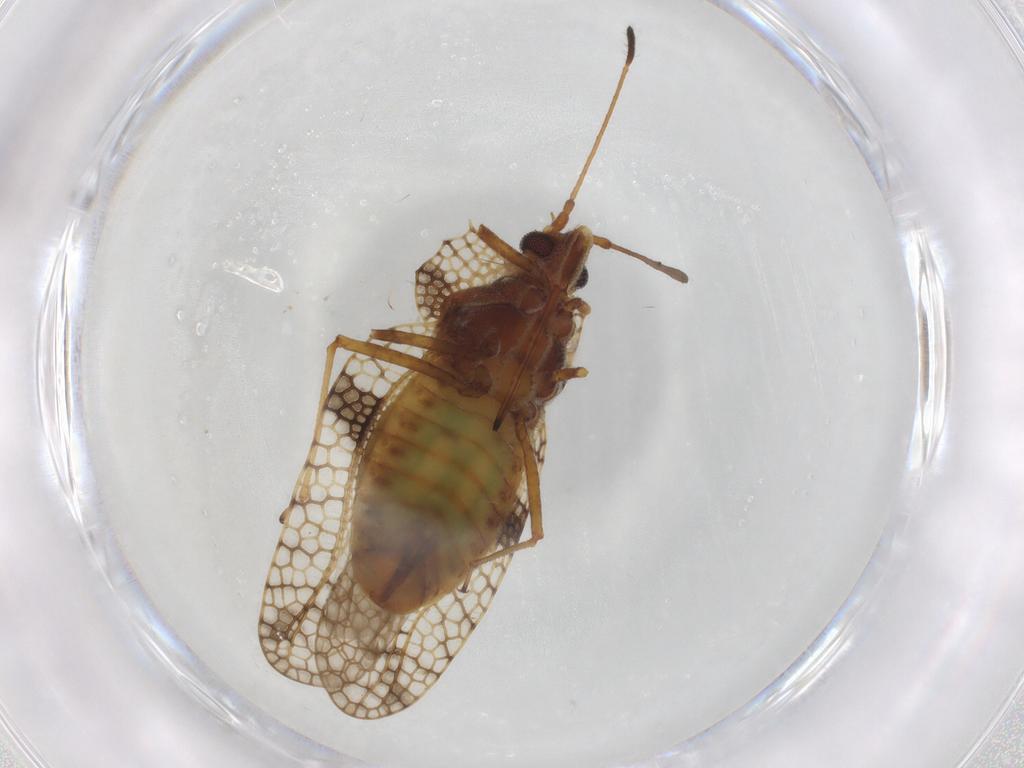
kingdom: Animalia
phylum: Arthropoda
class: Insecta
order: Hemiptera
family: Tingidae
